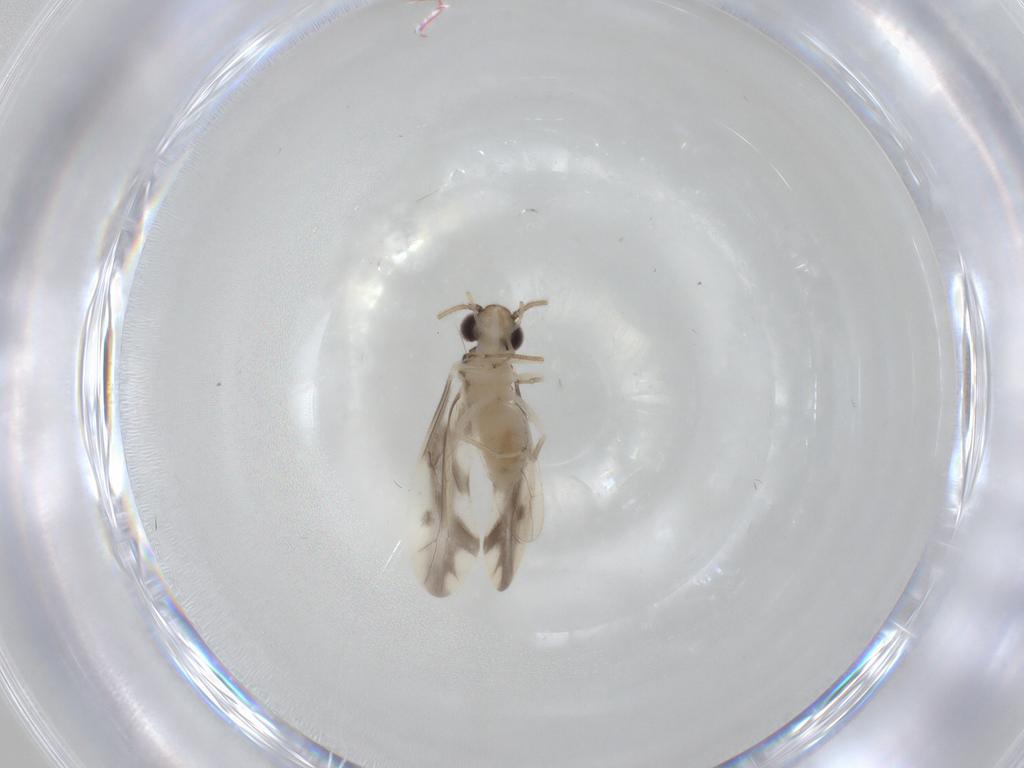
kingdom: Animalia
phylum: Arthropoda
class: Insecta
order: Psocodea
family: Caeciliusidae
